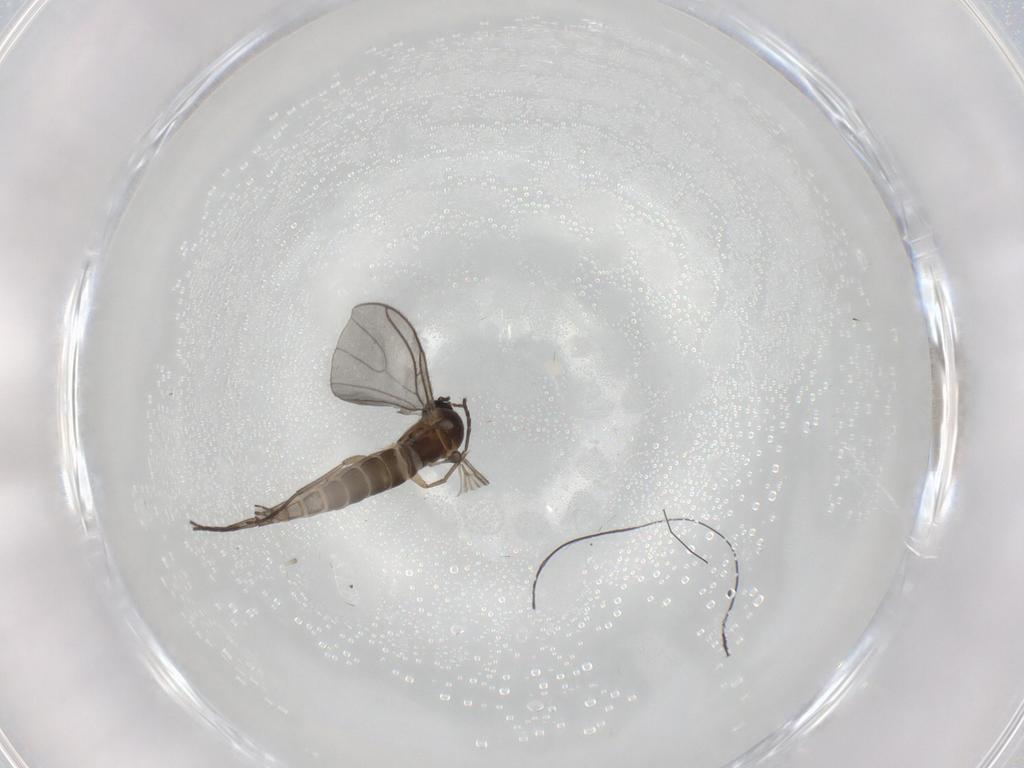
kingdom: Animalia
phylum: Arthropoda
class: Insecta
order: Diptera
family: Sciaridae
